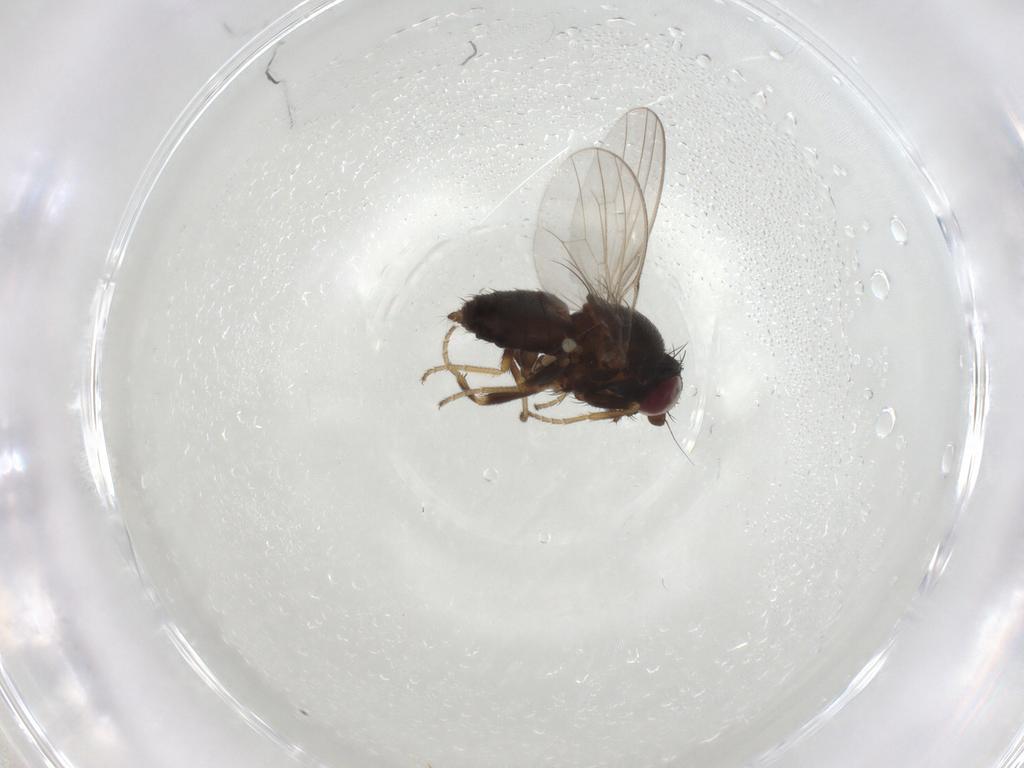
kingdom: Animalia
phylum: Arthropoda
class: Insecta
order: Diptera
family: Milichiidae
